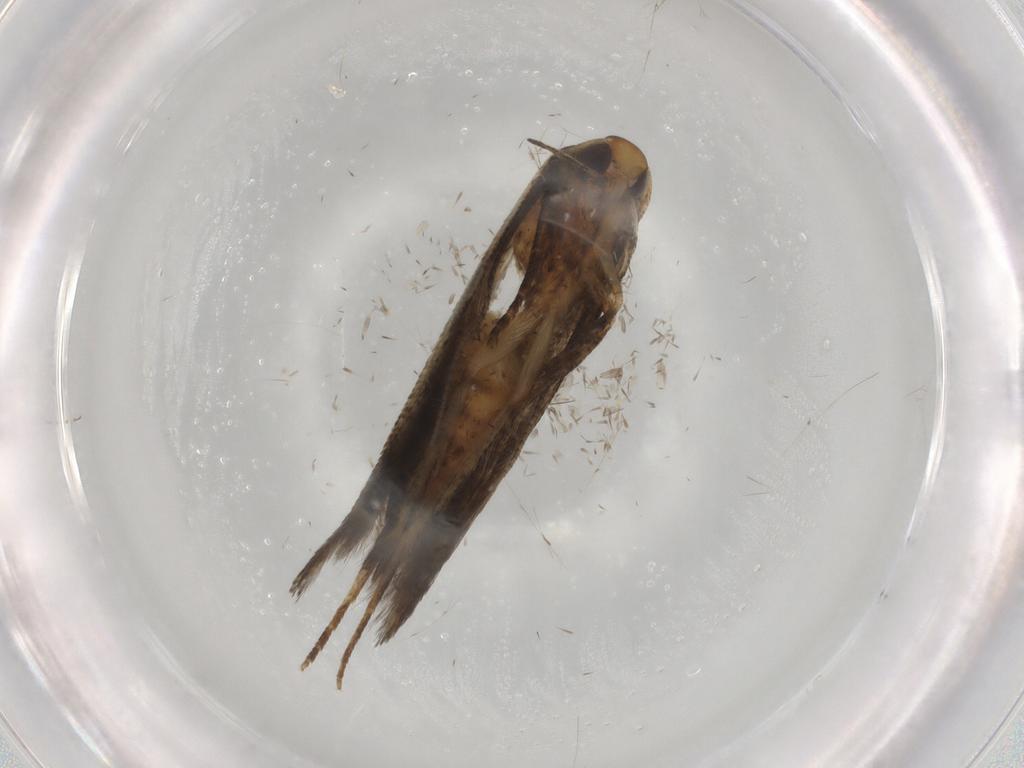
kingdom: Animalia
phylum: Arthropoda
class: Insecta
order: Lepidoptera
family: Cosmopterigidae
